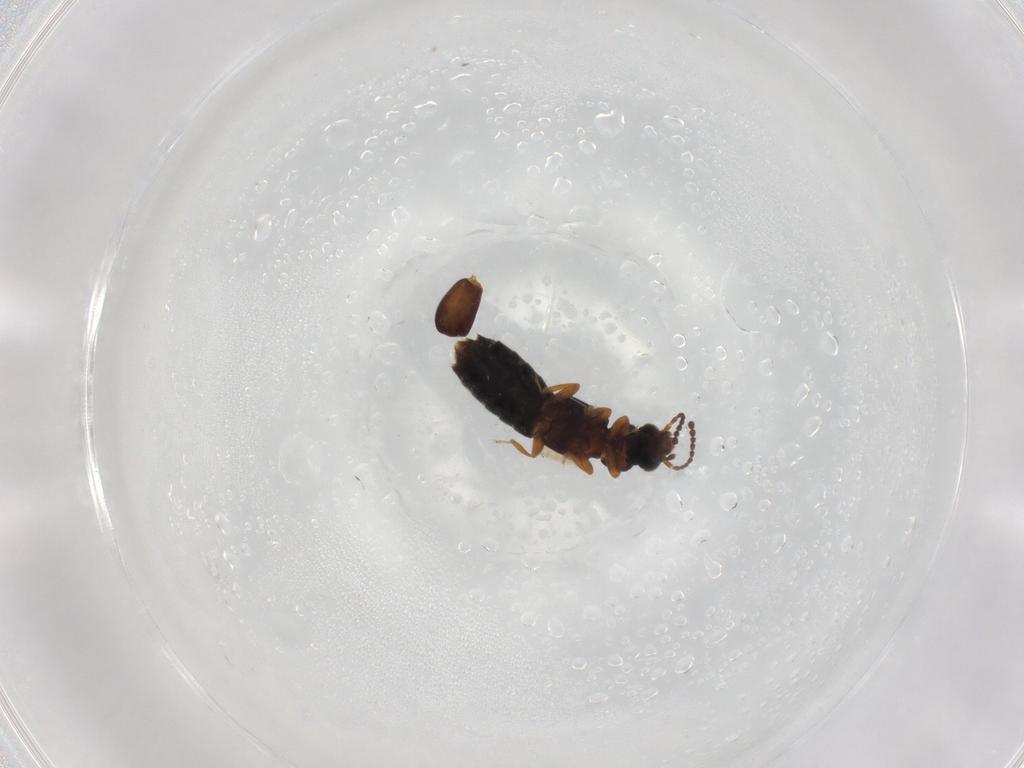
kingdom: Animalia
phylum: Arthropoda
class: Insecta
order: Coleoptera
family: Staphylinidae
